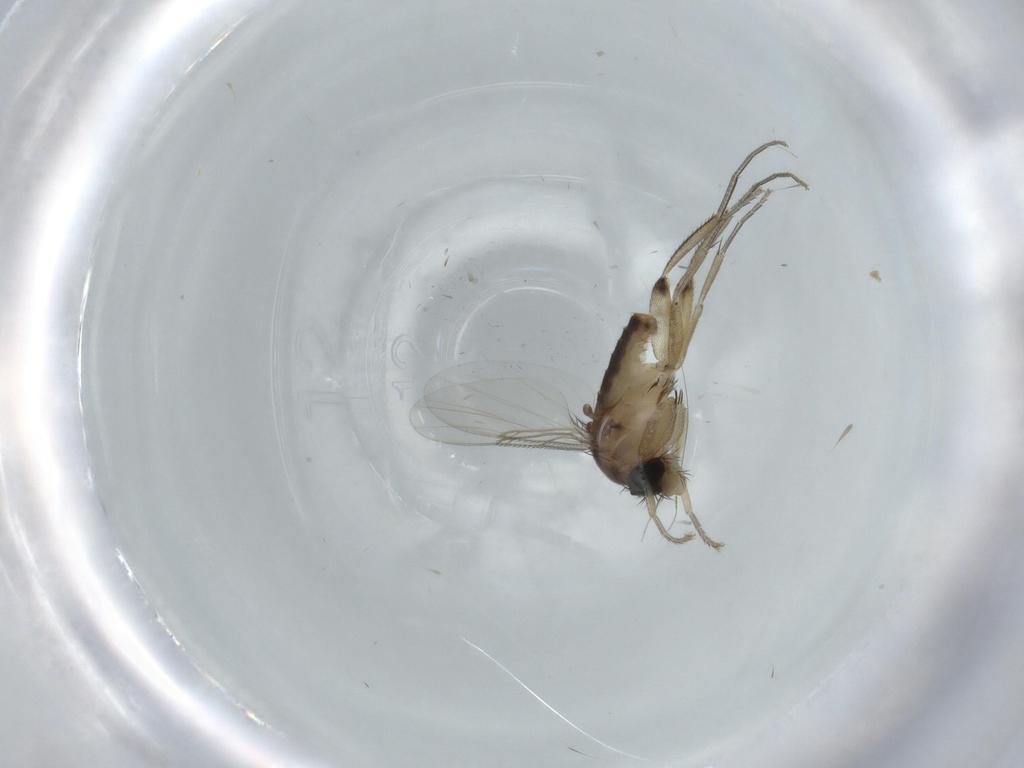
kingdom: Animalia
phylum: Arthropoda
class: Insecta
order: Diptera
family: Phoridae
